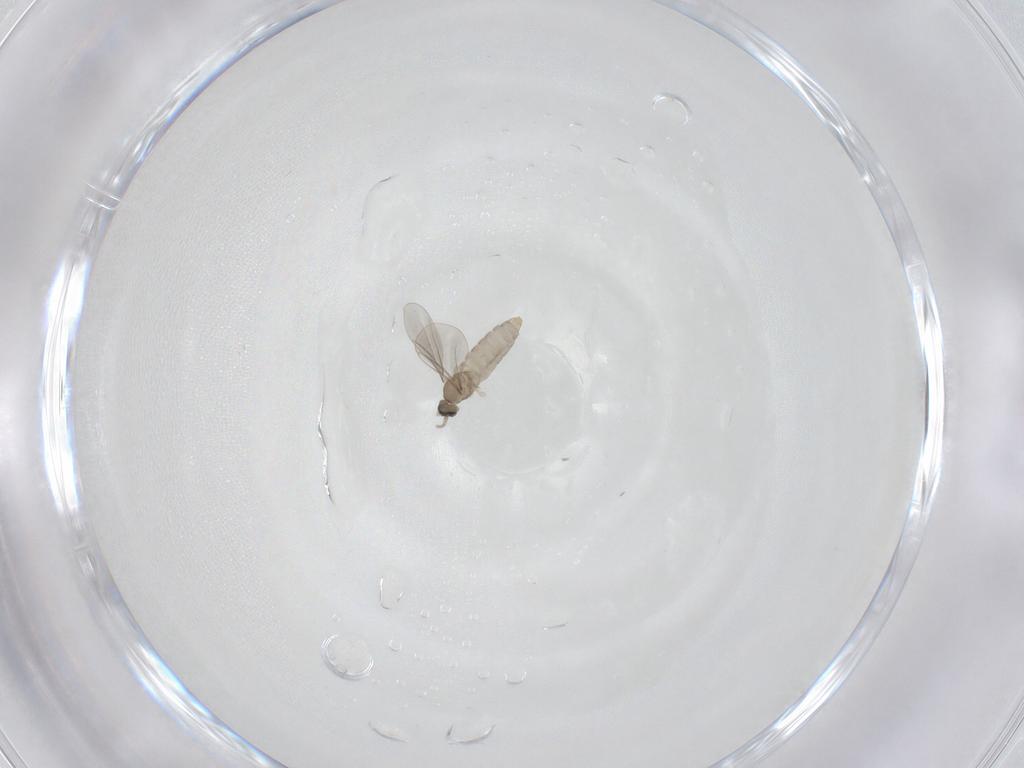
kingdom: Animalia
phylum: Arthropoda
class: Insecta
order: Diptera
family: Cecidomyiidae
